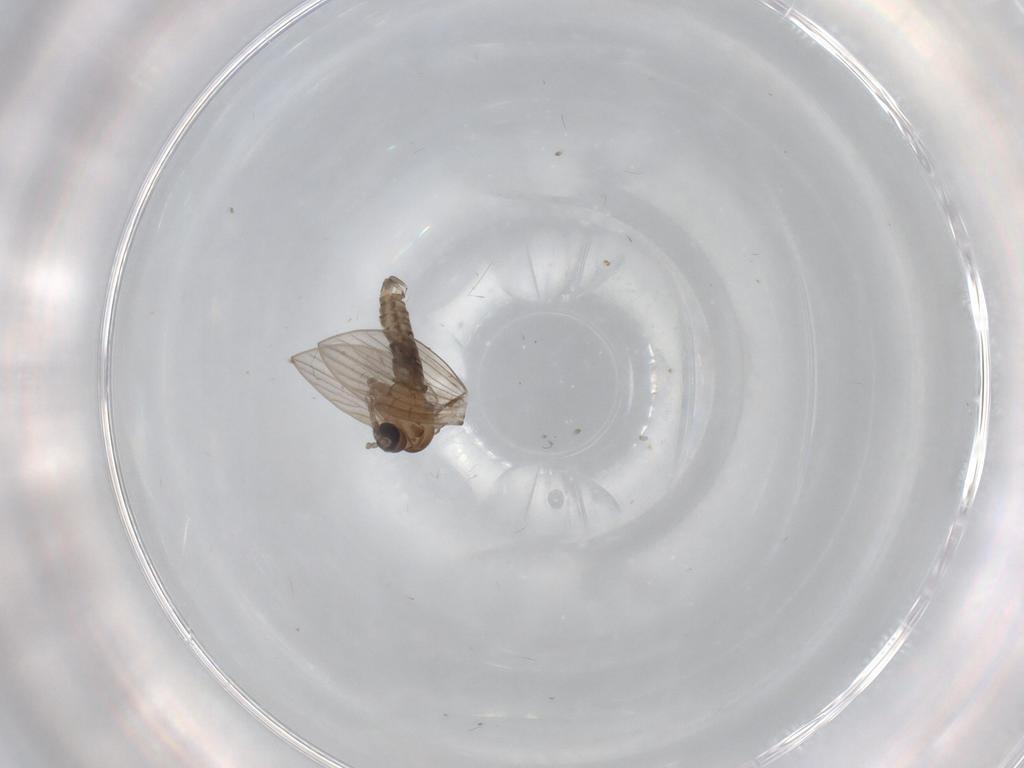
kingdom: Animalia
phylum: Arthropoda
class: Insecta
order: Diptera
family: Psychodidae
